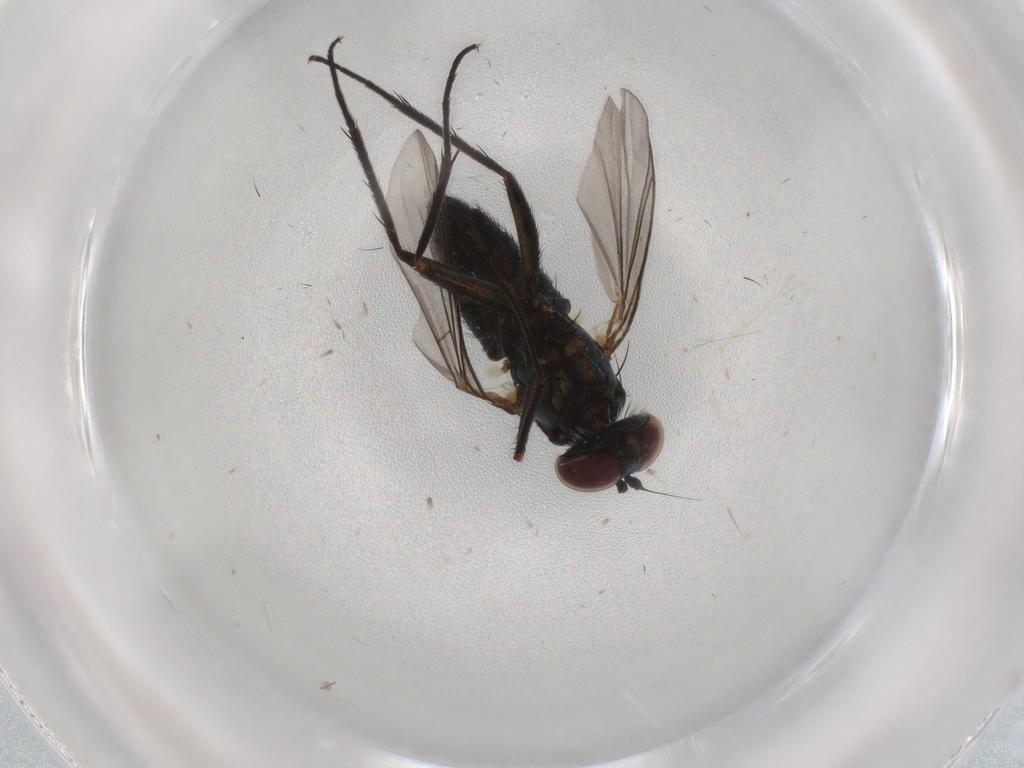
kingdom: Animalia
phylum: Arthropoda
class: Insecta
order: Diptera
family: Dolichopodidae
